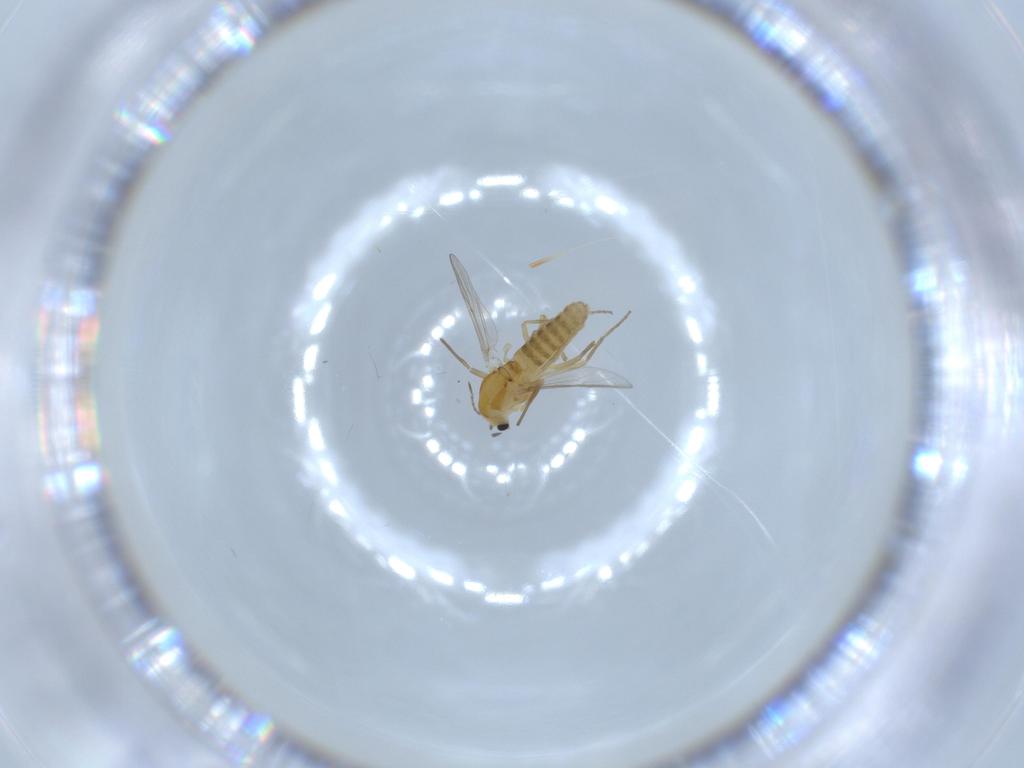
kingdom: Animalia
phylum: Arthropoda
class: Insecta
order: Diptera
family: Chironomidae
